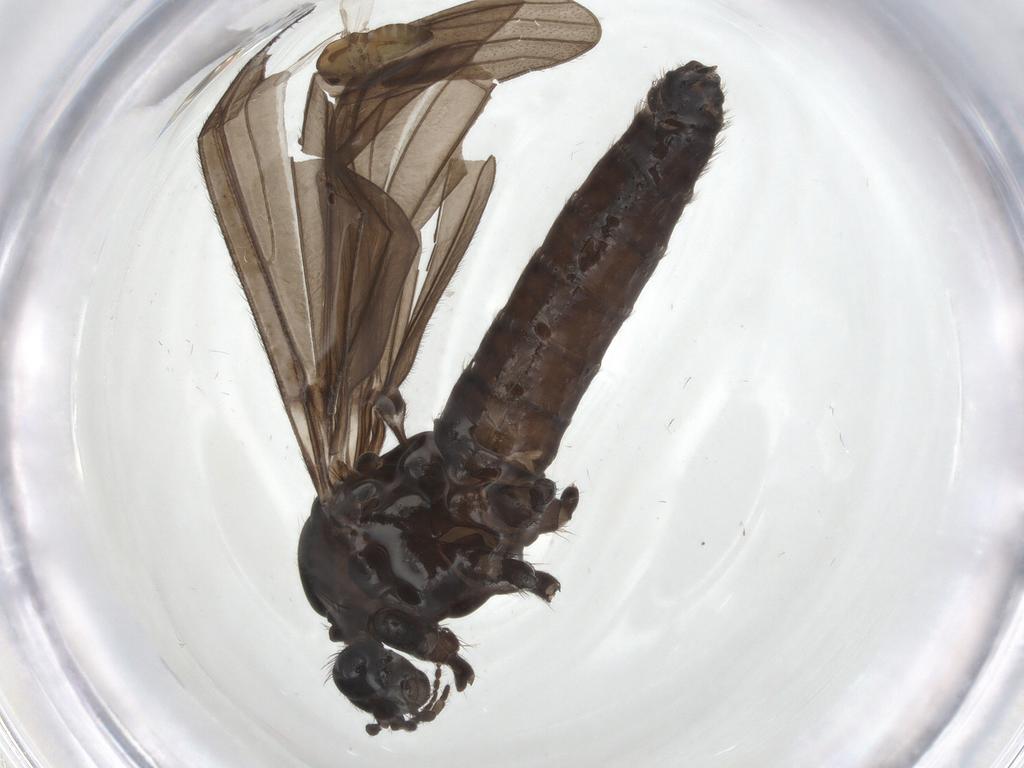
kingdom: Animalia
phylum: Arthropoda
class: Insecta
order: Diptera
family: Limoniidae
